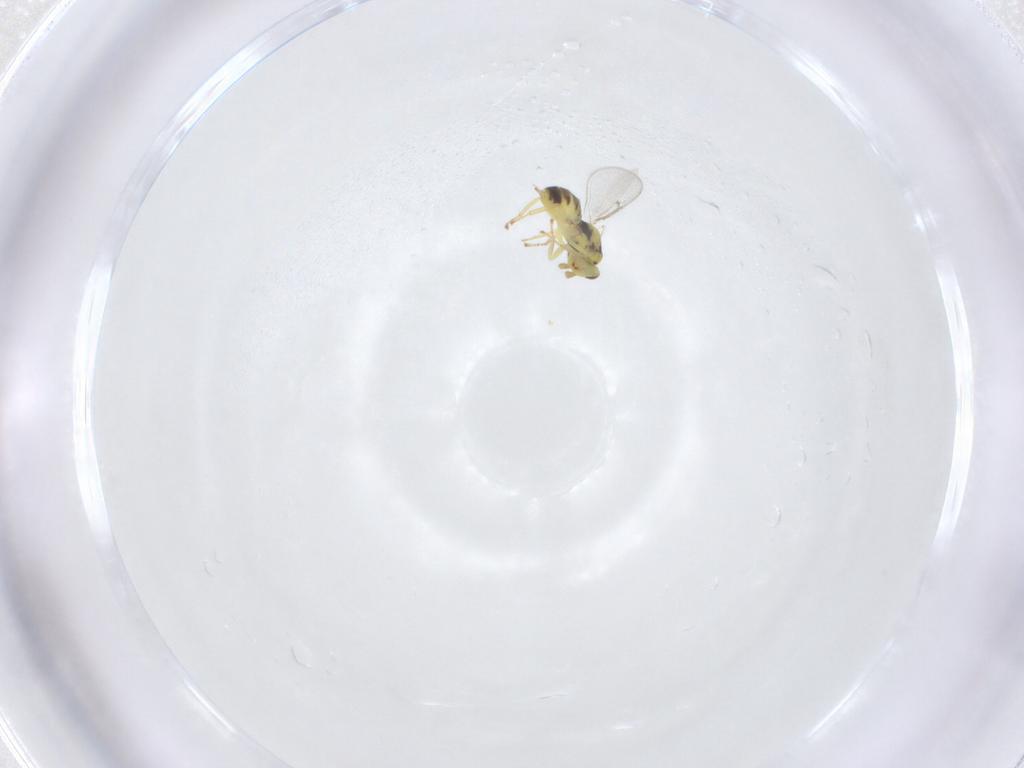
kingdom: Animalia
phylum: Arthropoda
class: Insecta
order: Hymenoptera
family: Eulophidae
